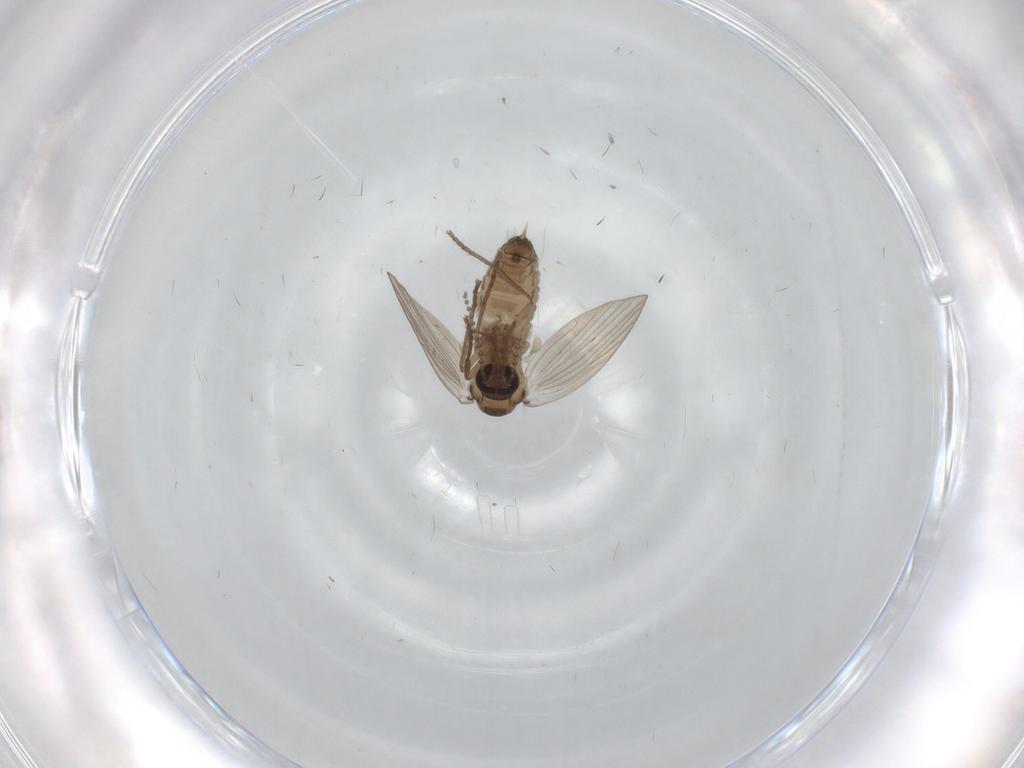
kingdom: Animalia
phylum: Arthropoda
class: Insecta
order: Diptera
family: Psychodidae
